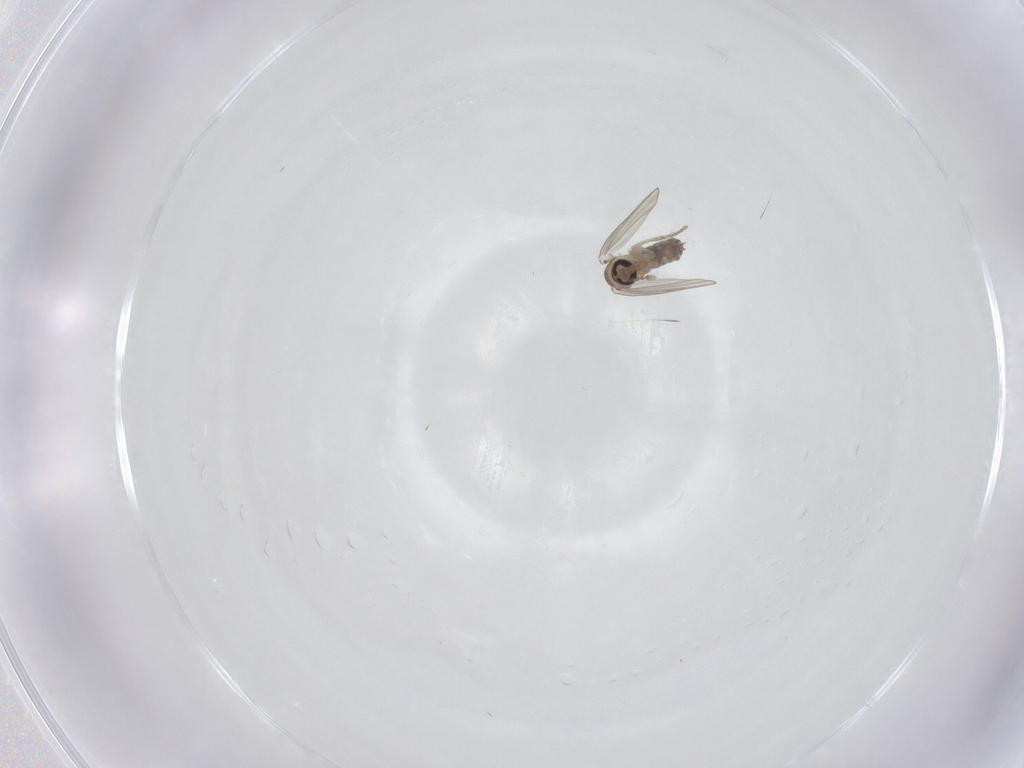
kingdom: Animalia
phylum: Arthropoda
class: Insecta
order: Diptera
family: Psychodidae
